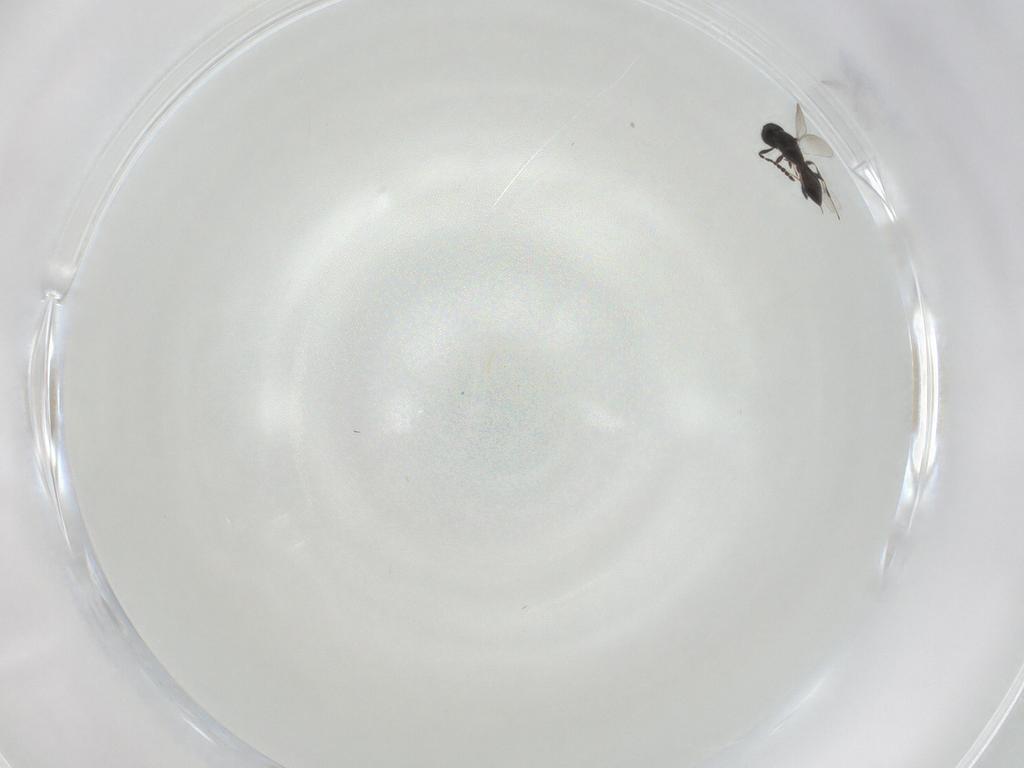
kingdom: Animalia
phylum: Arthropoda
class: Insecta
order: Hymenoptera
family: Platygastridae
